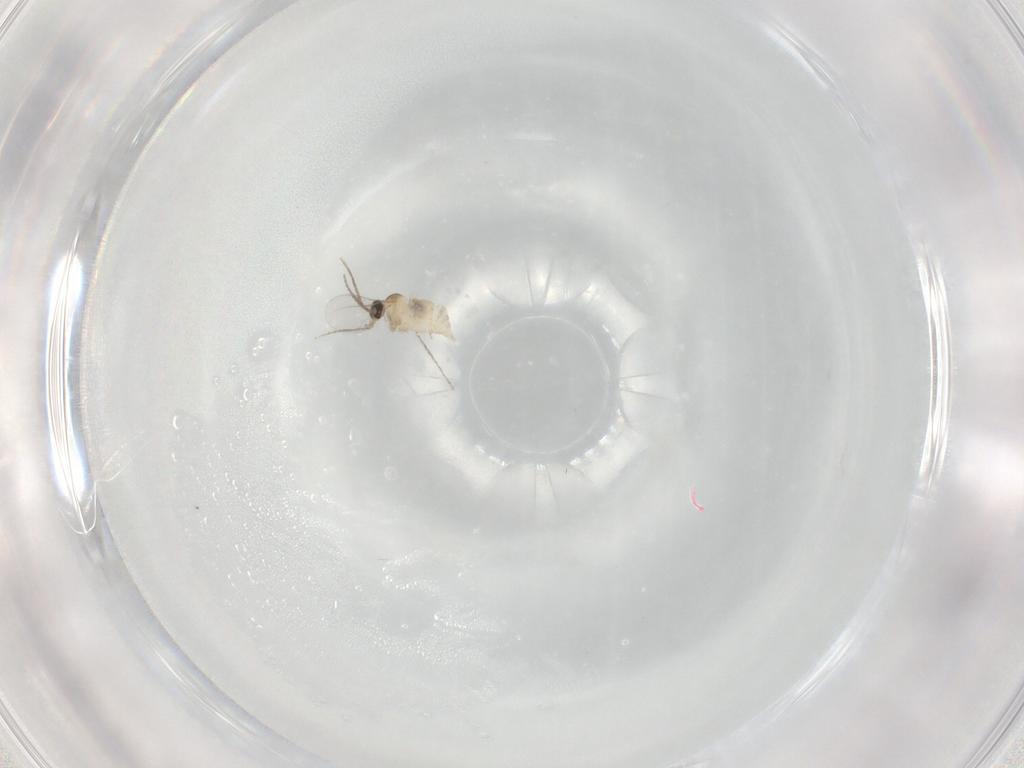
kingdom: Animalia
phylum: Arthropoda
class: Insecta
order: Diptera
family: Cecidomyiidae
